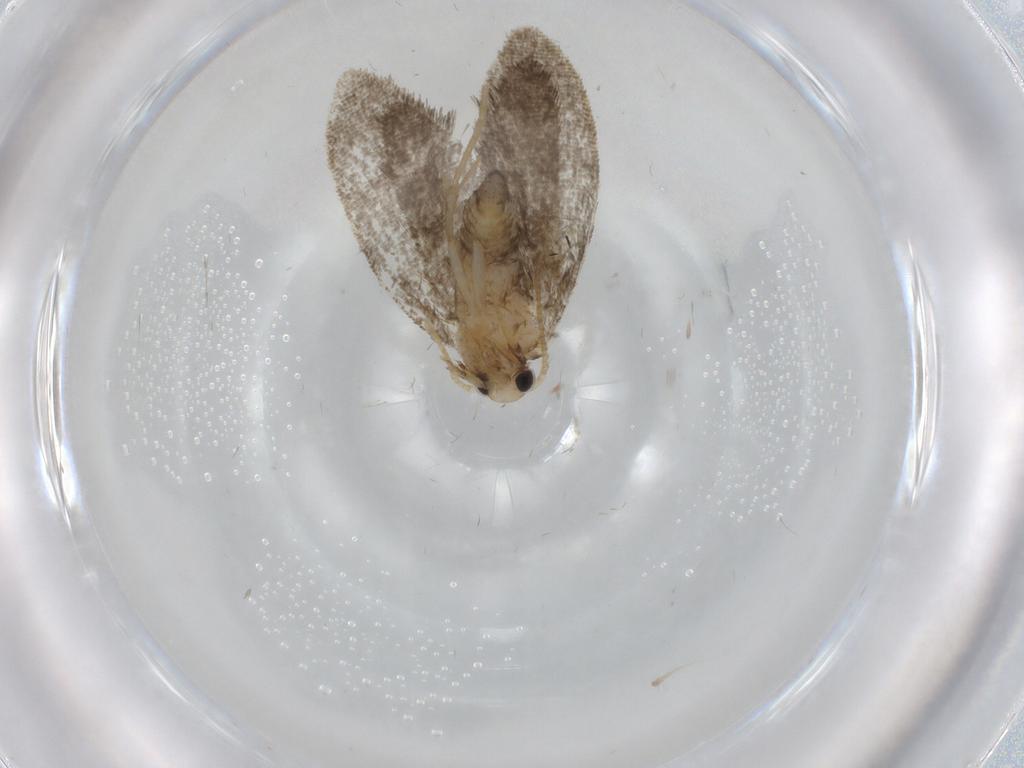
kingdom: Animalia
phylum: Arthropoda
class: Insecta
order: Lepidoptera
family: Psychidae
